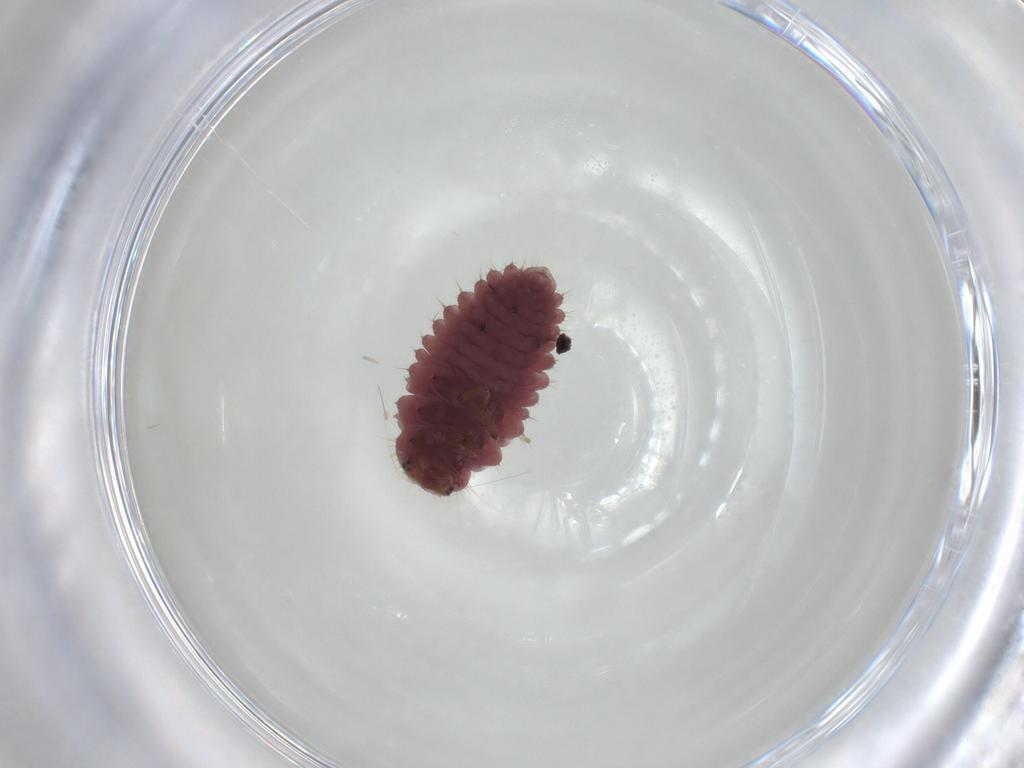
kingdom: Animalia
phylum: Arthropoda
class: Insecta
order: Coleoptera
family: Coccinellidae
